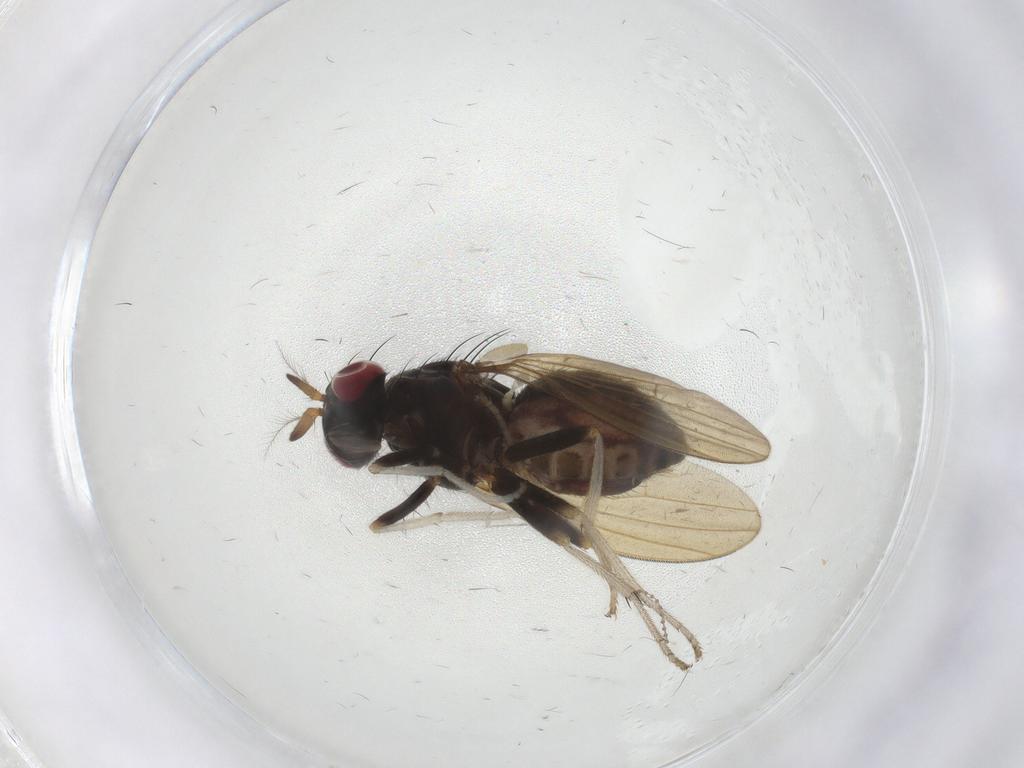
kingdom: Animalia
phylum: Arthropoda
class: Insecta
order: Diptera
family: Lauxaniidae
